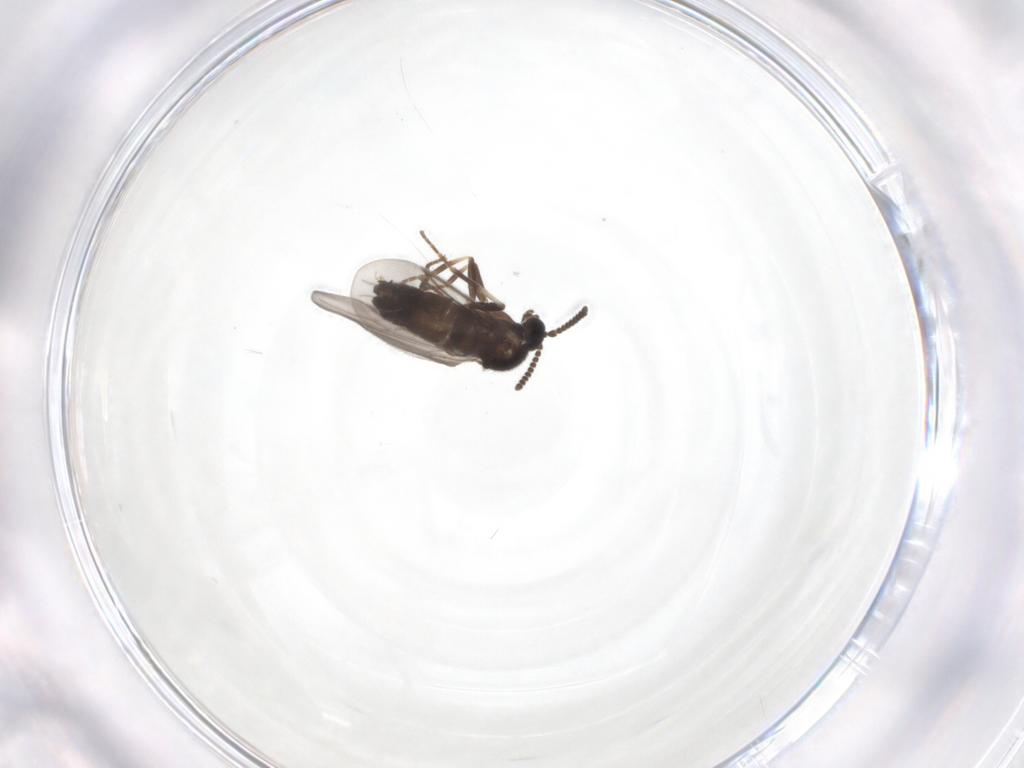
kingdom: Animalia
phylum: Arthropoda
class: Insecta
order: Diptera
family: Scatopsidae
